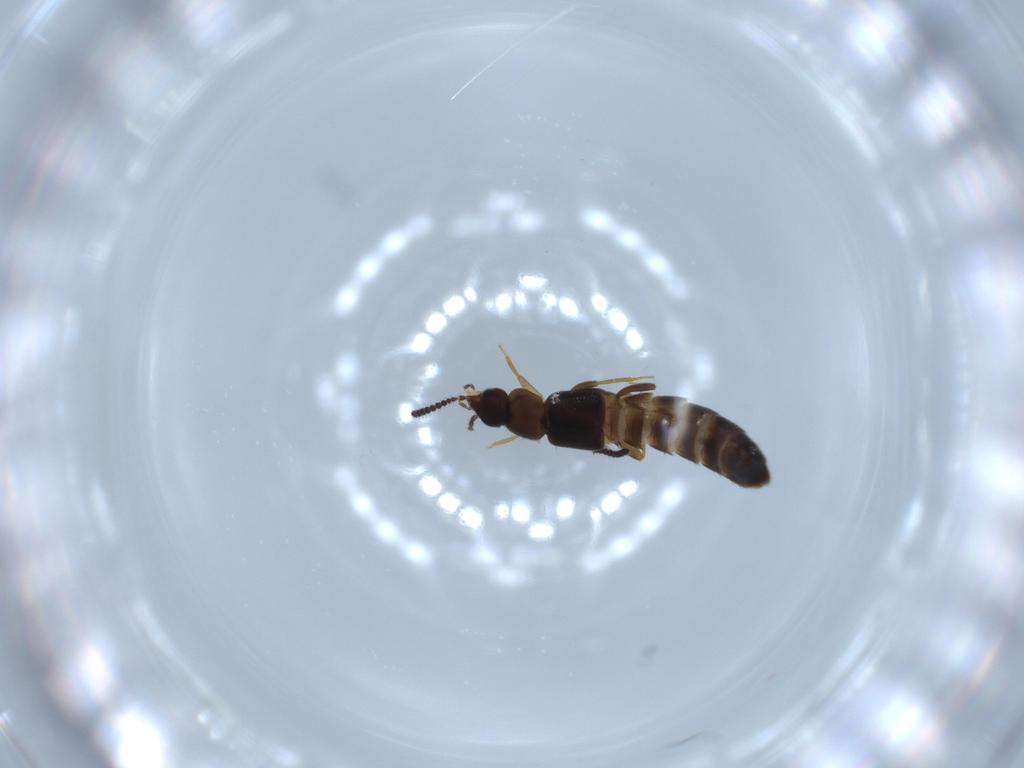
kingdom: Animalia
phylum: Arthropoda
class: Insecta
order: Coleoptera
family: Staphylinidae
